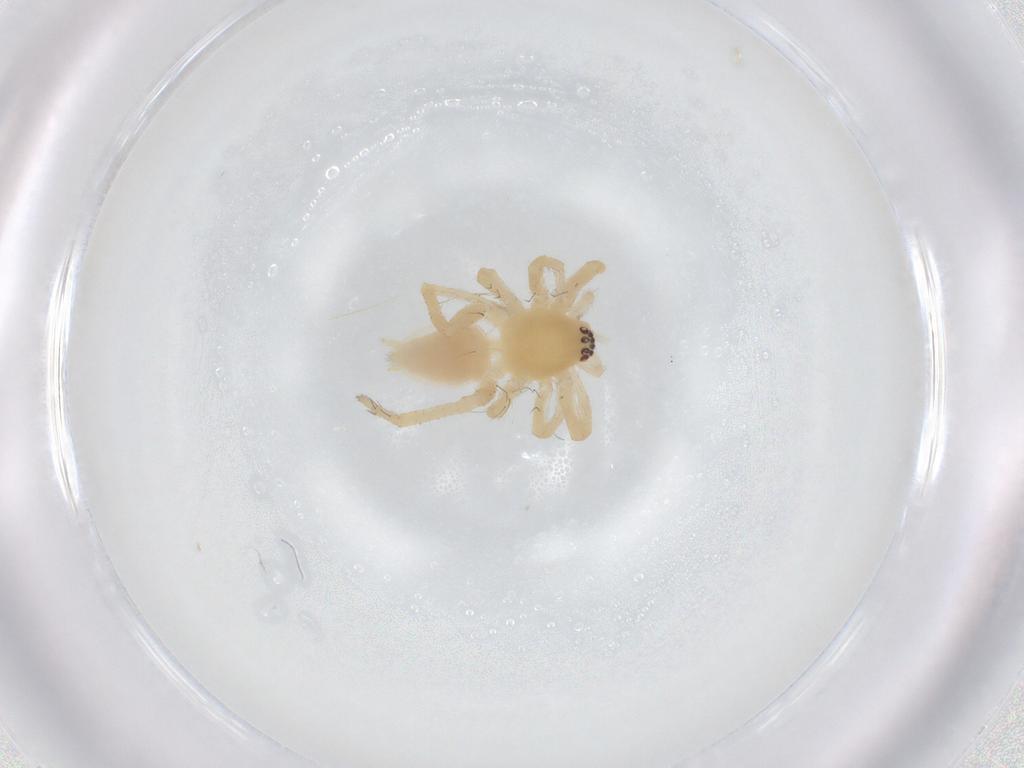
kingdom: Animalia
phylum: Arthropoda
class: Arachnida
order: Araneae
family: Anyphaenidae
